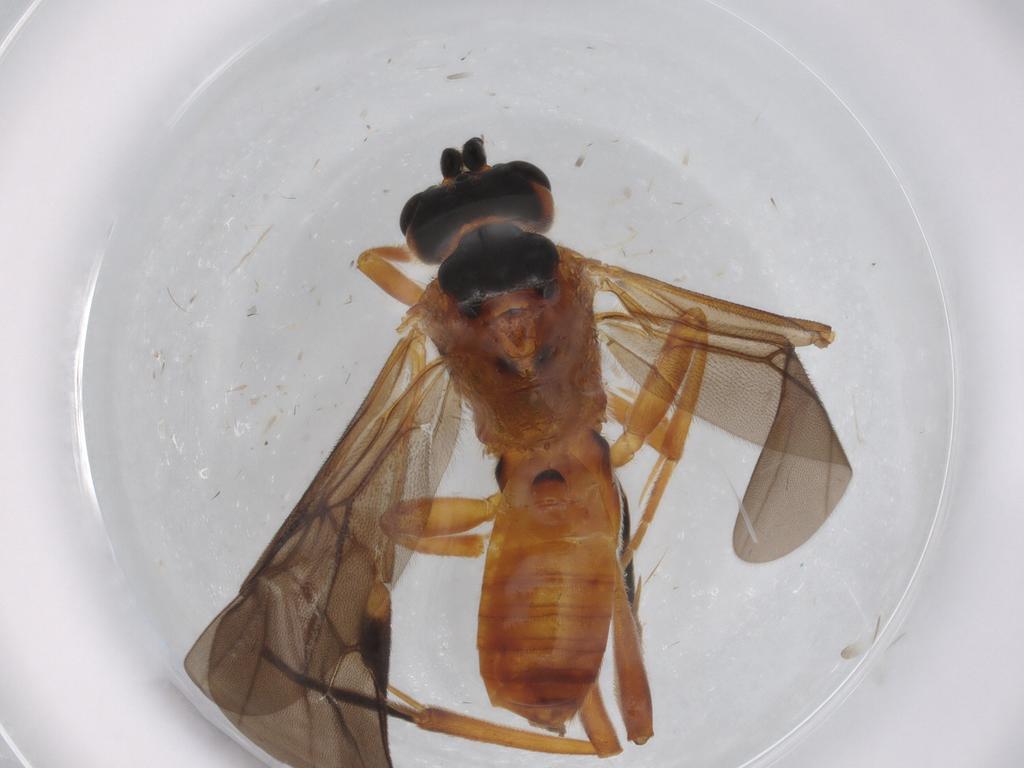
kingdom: Animalia
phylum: Arthropoda
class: Insecta
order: Hymenoptera
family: Braconidae
